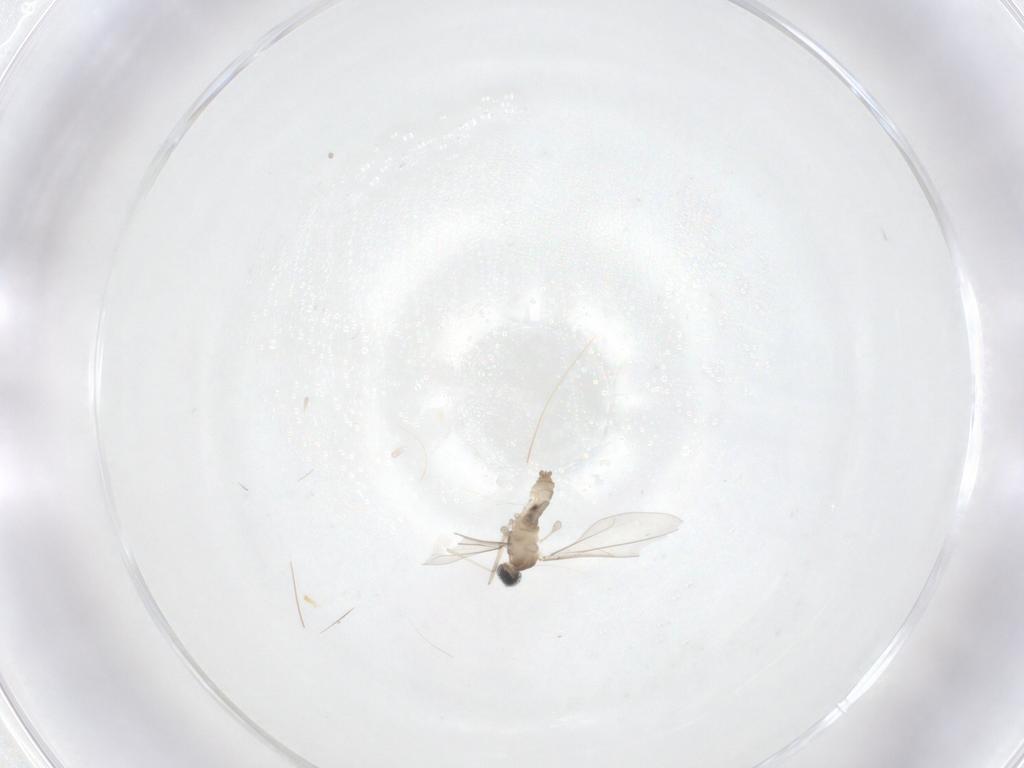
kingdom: Animalia
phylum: Arthropoda
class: Insecta
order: Diptera
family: Cecidomyiidae
